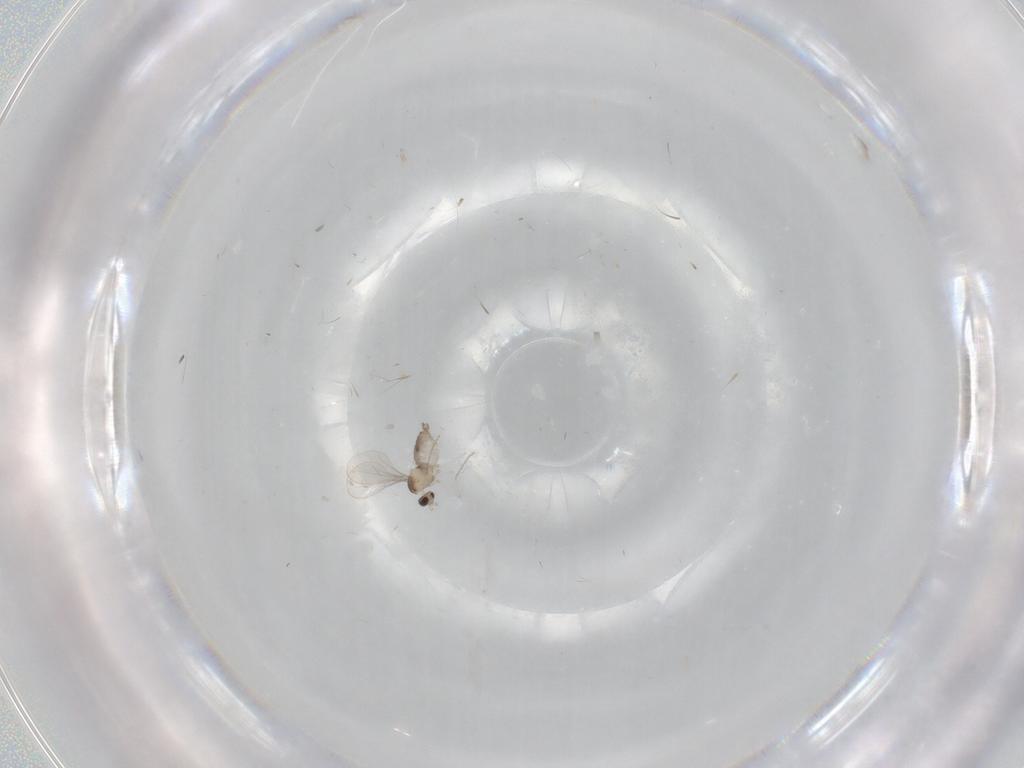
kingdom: Animalia
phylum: Arthropoda
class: Insecta
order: Diptera
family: Cecidomyiidae
